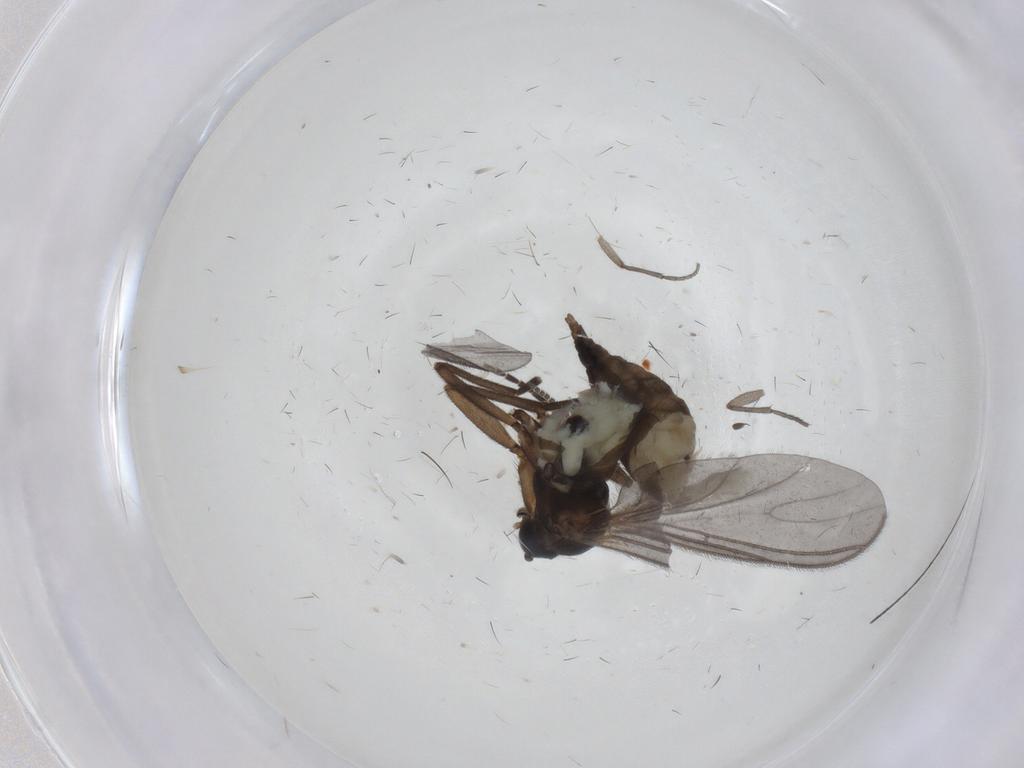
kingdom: Animalia
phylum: Arthropoda
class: Insecta
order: Diptera
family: Sciaridae
